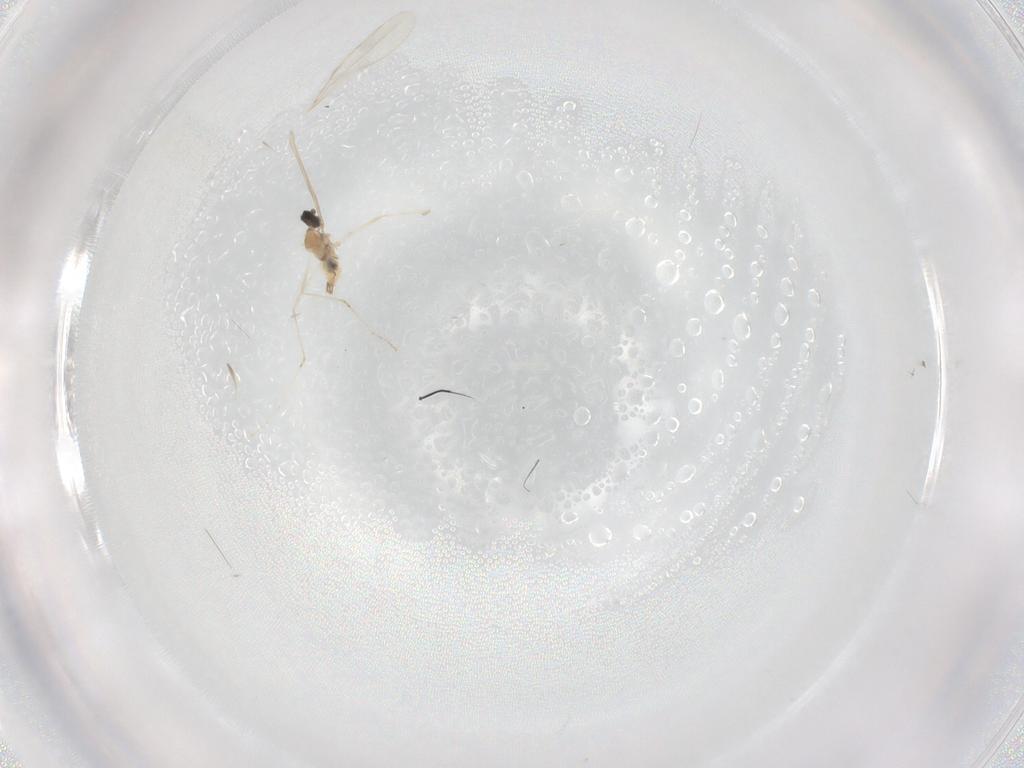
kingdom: Animalia
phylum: Arthropoda
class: Insecta
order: Diptera
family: Cecidomyiidae
